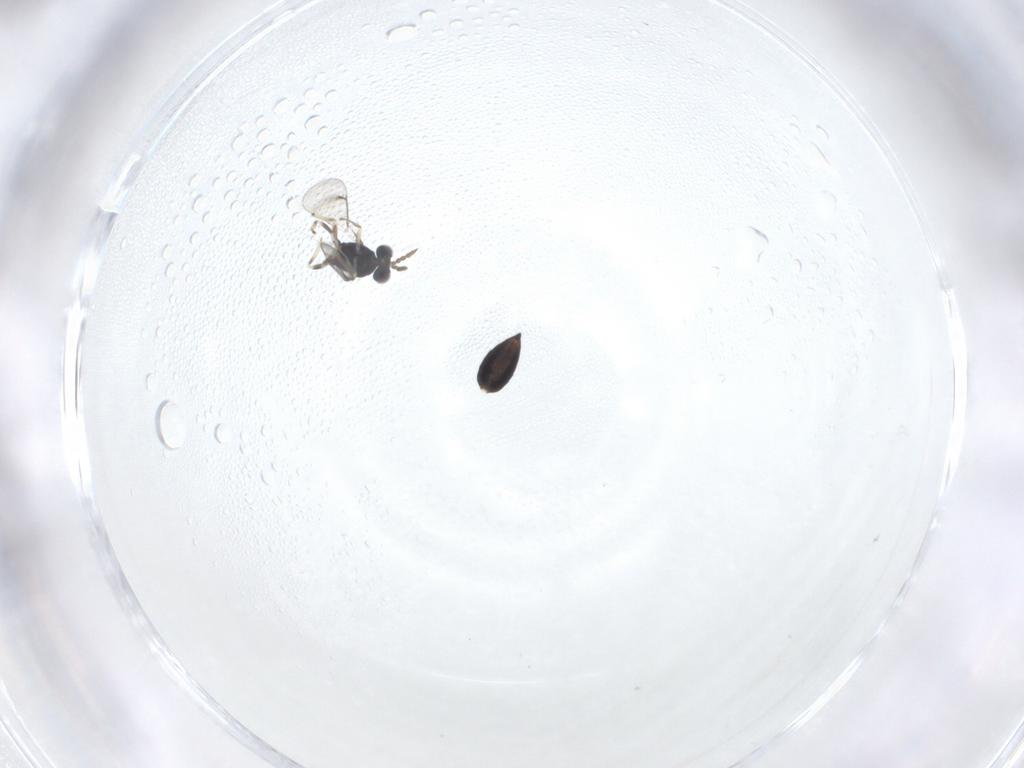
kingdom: Animalia
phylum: Arthropoda
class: Insecta
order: Hymenoptera
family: Eulophidae
